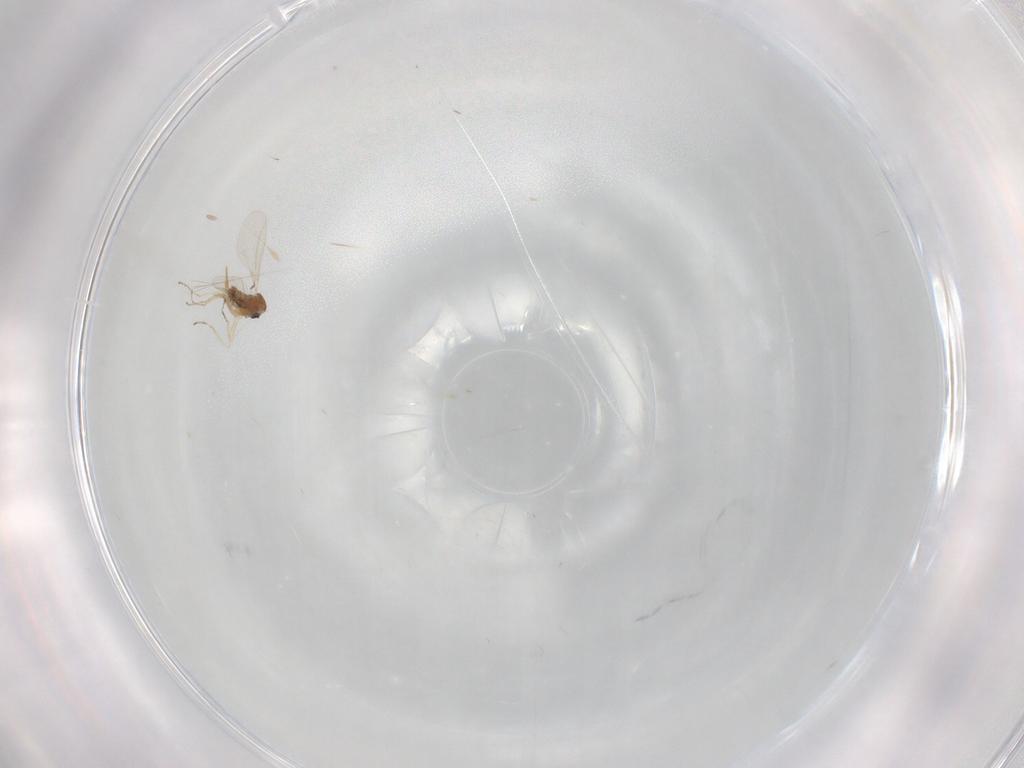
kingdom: Animalia
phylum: Arthropoda
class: Insecta
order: Diptera
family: Cecidomyiidae
